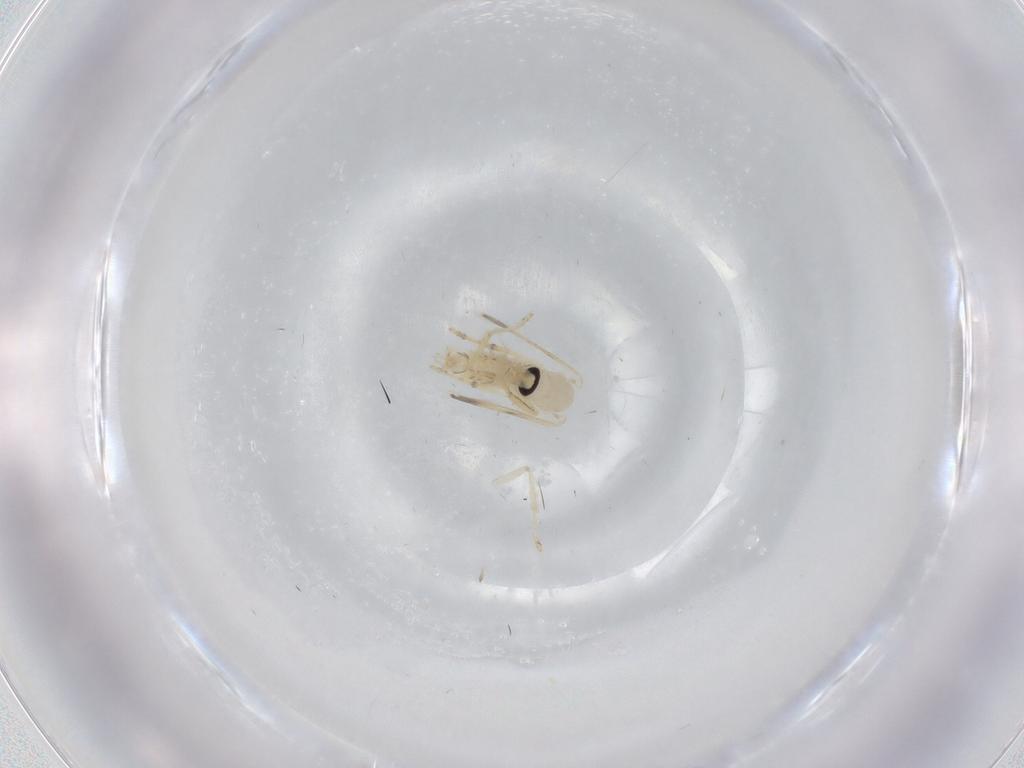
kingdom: Animalia
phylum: Arthropoda
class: Insecta
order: Diptera
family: Psychodidae
